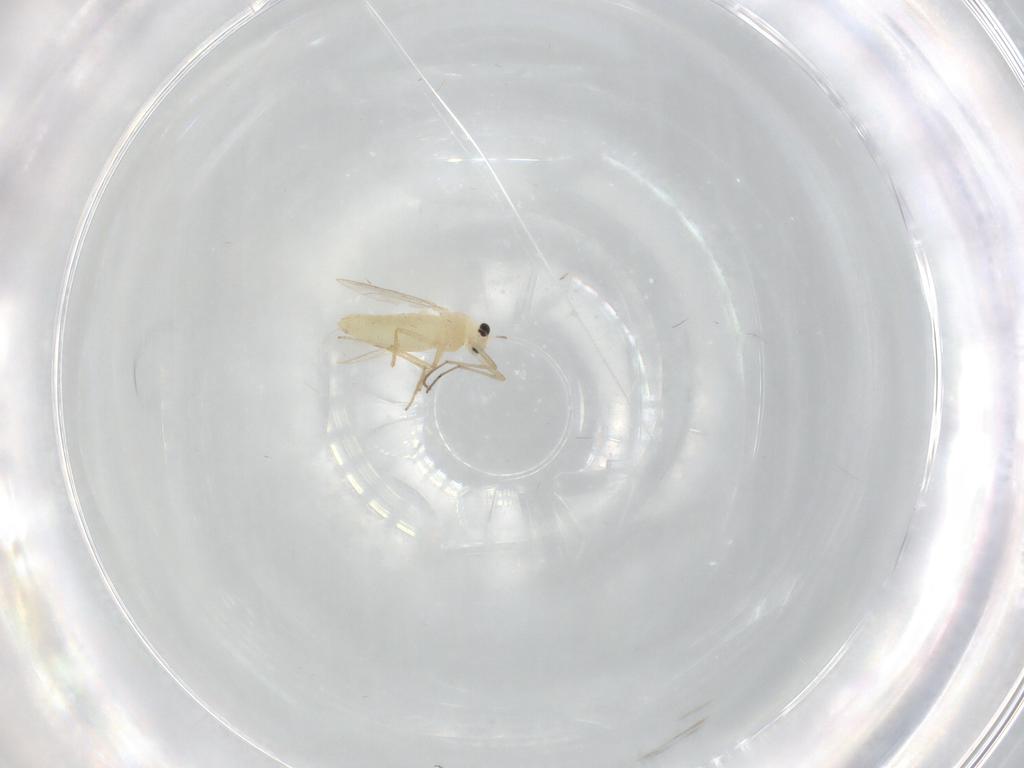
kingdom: Animalia
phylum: Arthropoda
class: Insecta
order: Diptera
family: Chironomidae
